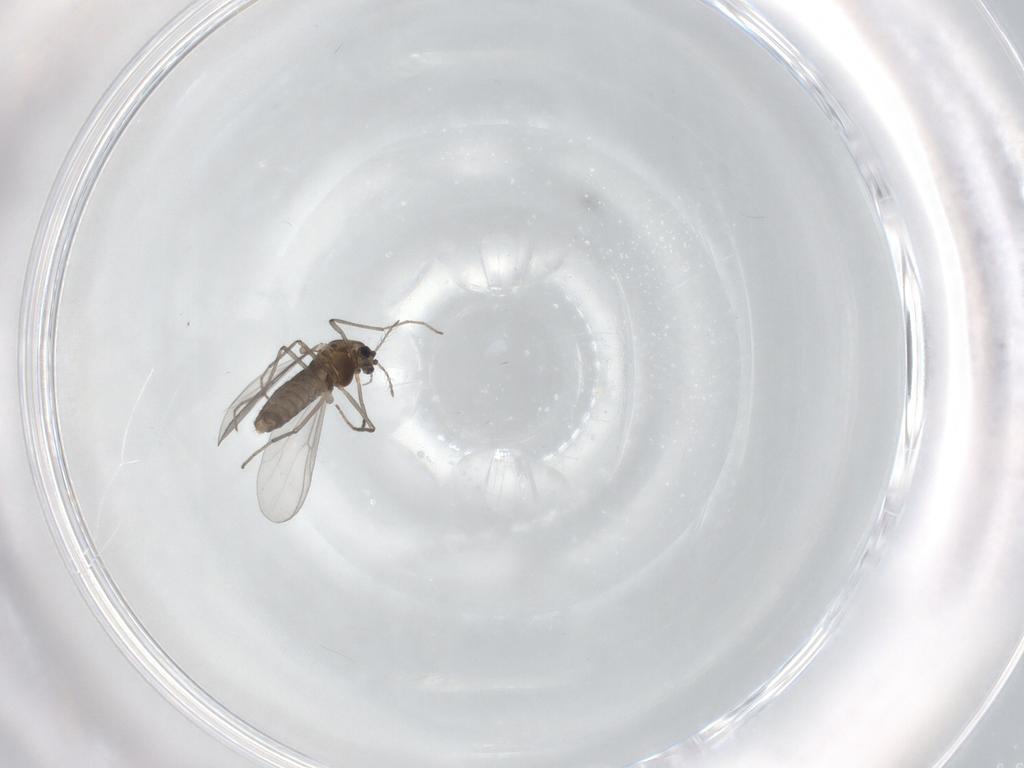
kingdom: Animalia
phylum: Arthropoda
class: Insecta
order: Diptera
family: Chironomidae
